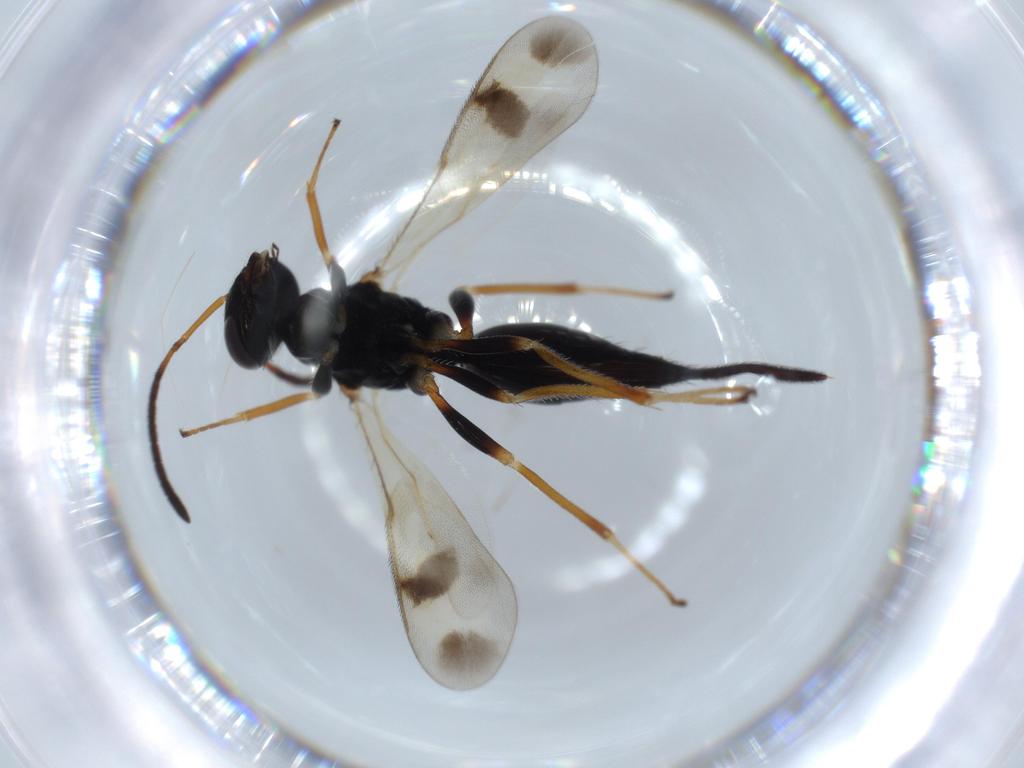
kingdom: Animalia
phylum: Arthropoda
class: Insecta
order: Hymenoptera
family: Diparidae
